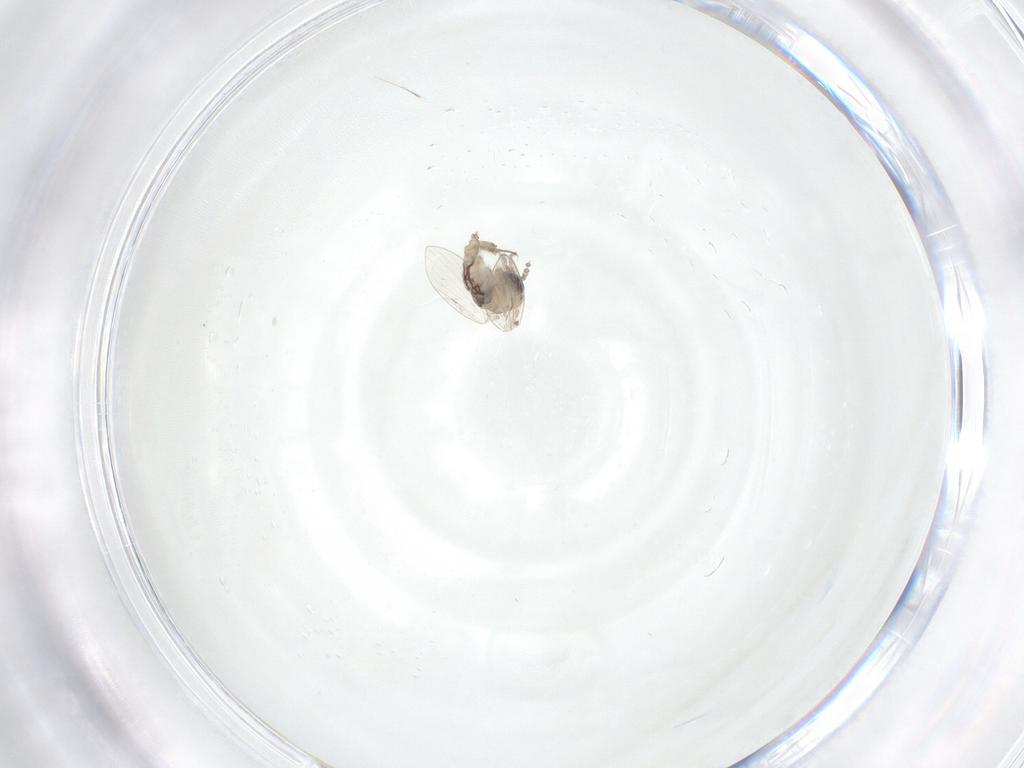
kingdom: Animalia
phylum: Arthropoda
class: Insecta
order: Diptera
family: Psychodidae
